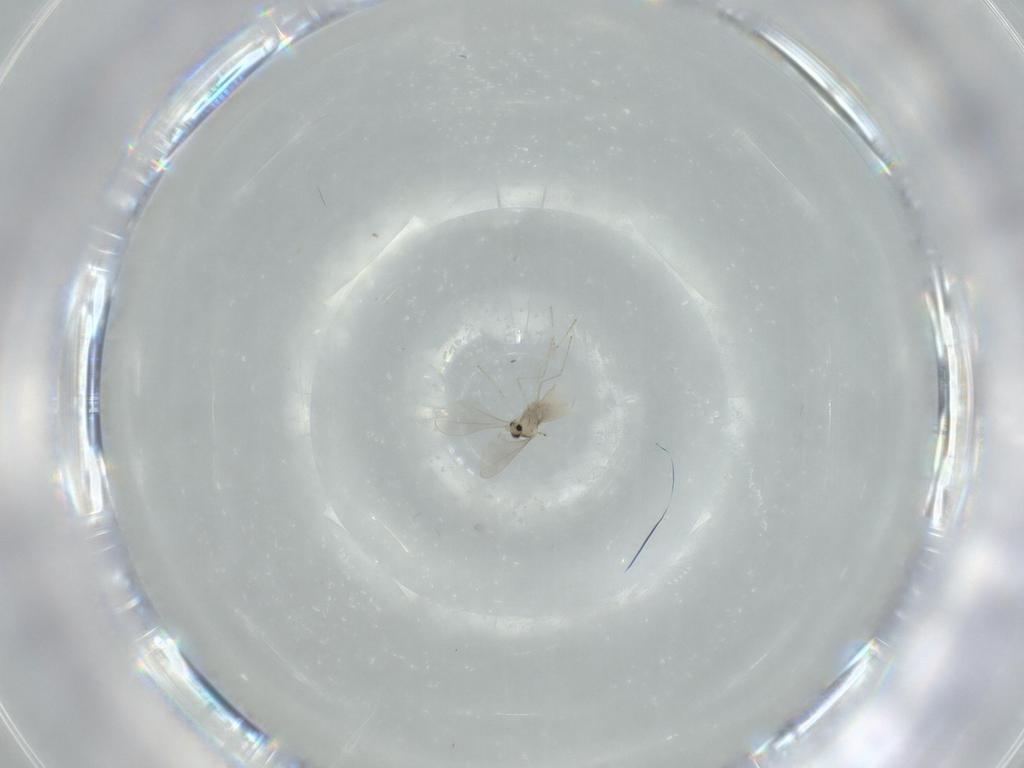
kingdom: Animalia
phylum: Arthropoda
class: Insecta
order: Diptera
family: Cecidomyiidae
